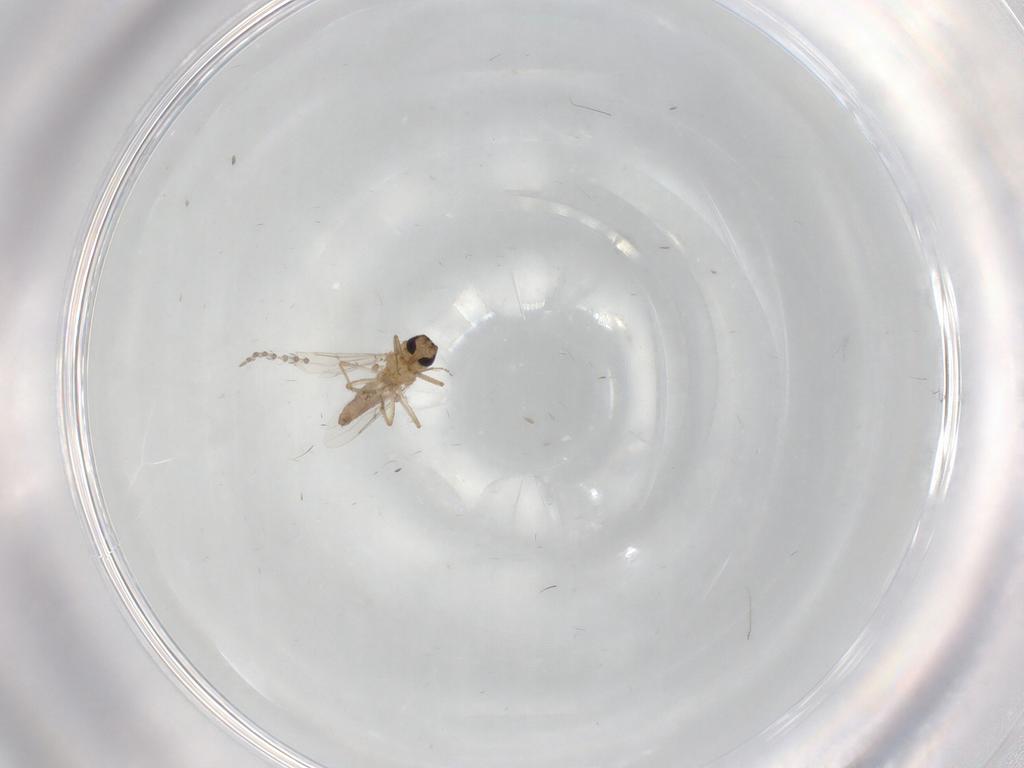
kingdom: Animalia
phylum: Arthropoda
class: Insecta
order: Diptera
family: Psychodidae
